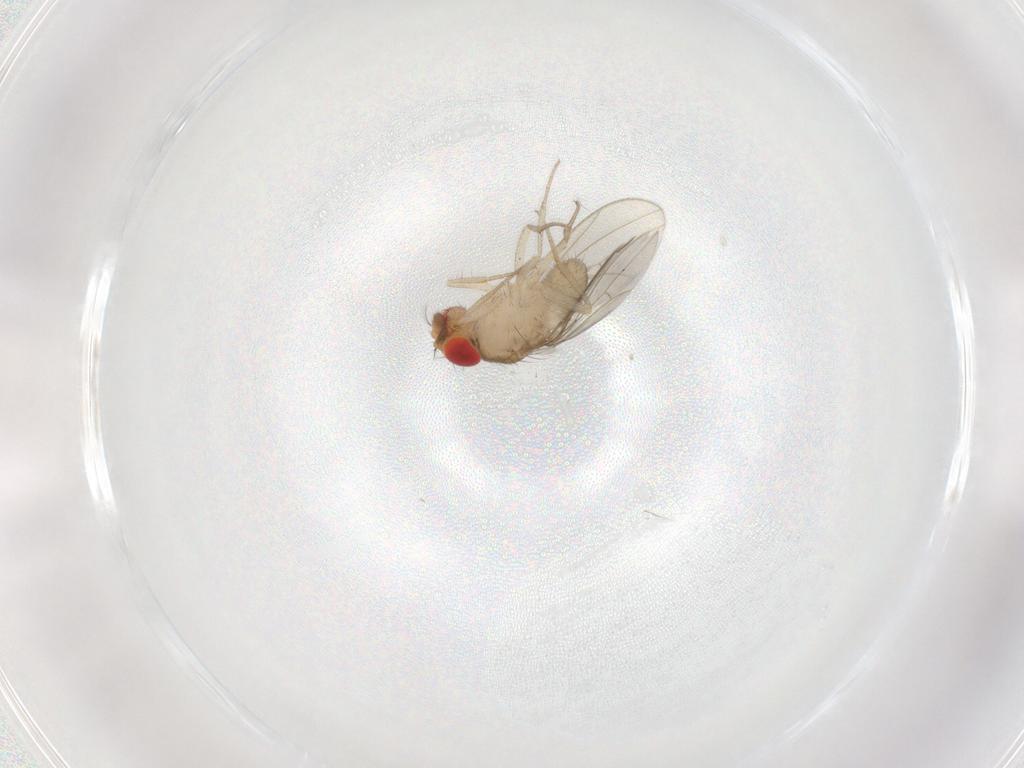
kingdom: Animalia
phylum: Arthropoda
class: Insecta
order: Diptera
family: Drosophilidae
